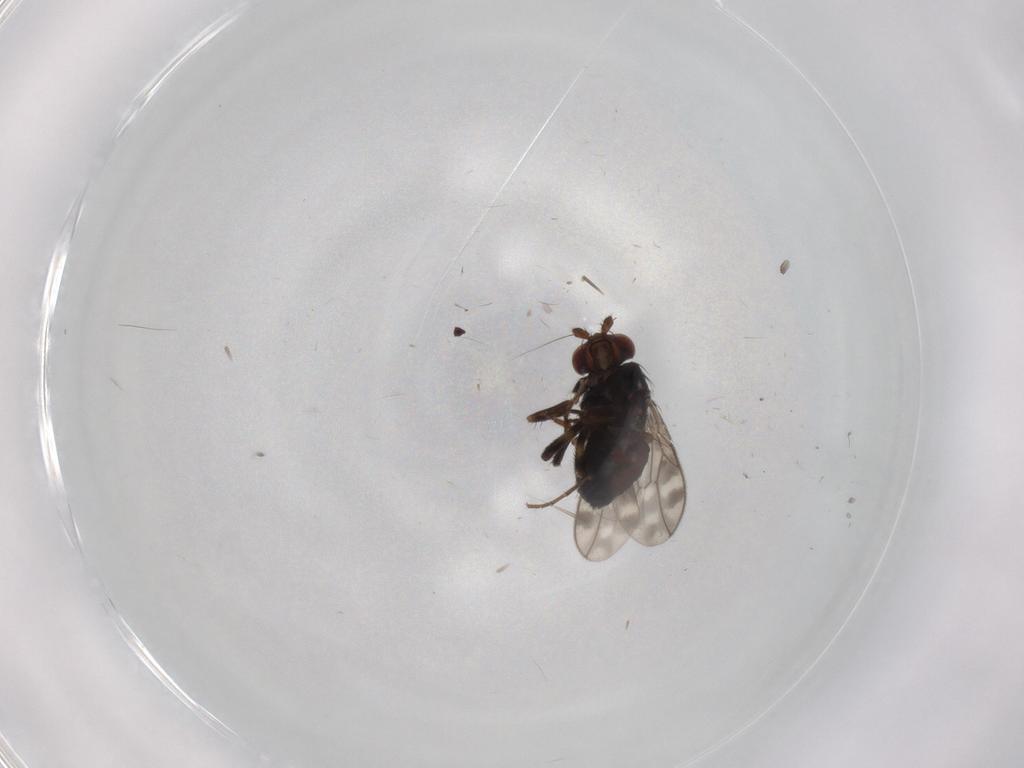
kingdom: Animalia
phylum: Arthropoda
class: Insecta
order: Diptera
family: Sphaeroceridae
